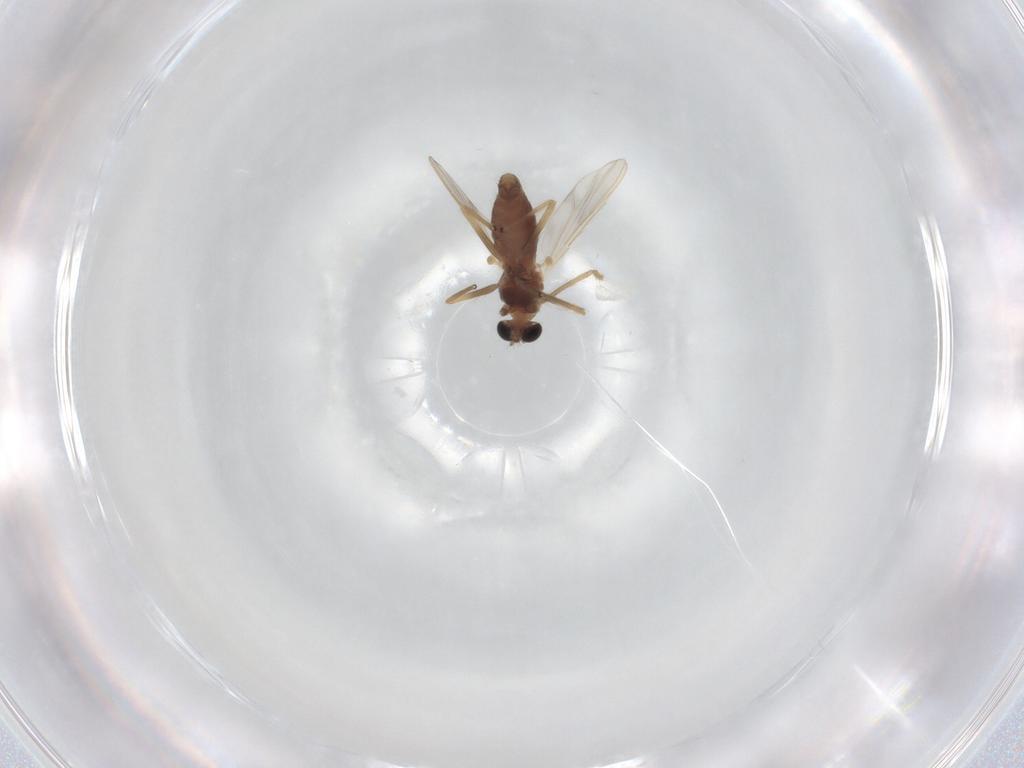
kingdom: Animalia
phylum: Arthropoda
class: Insecta
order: Diptera
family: Chironomidae
